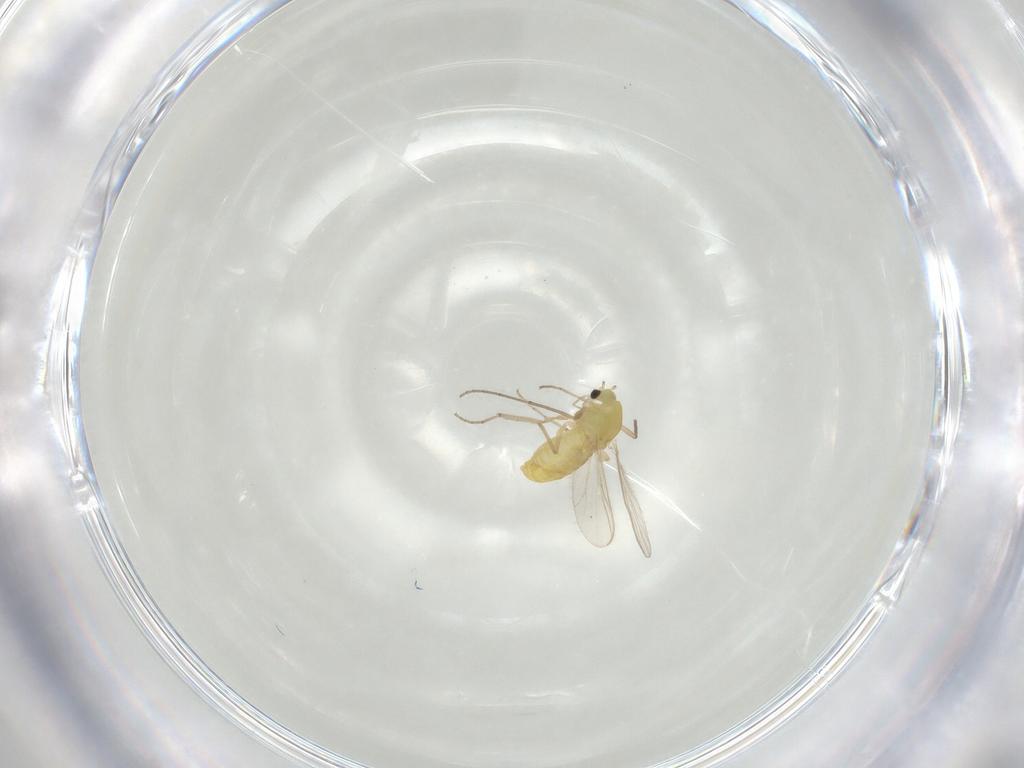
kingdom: Animalia
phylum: Arthropoda
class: Insecta
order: Diptera
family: Chironomidae
